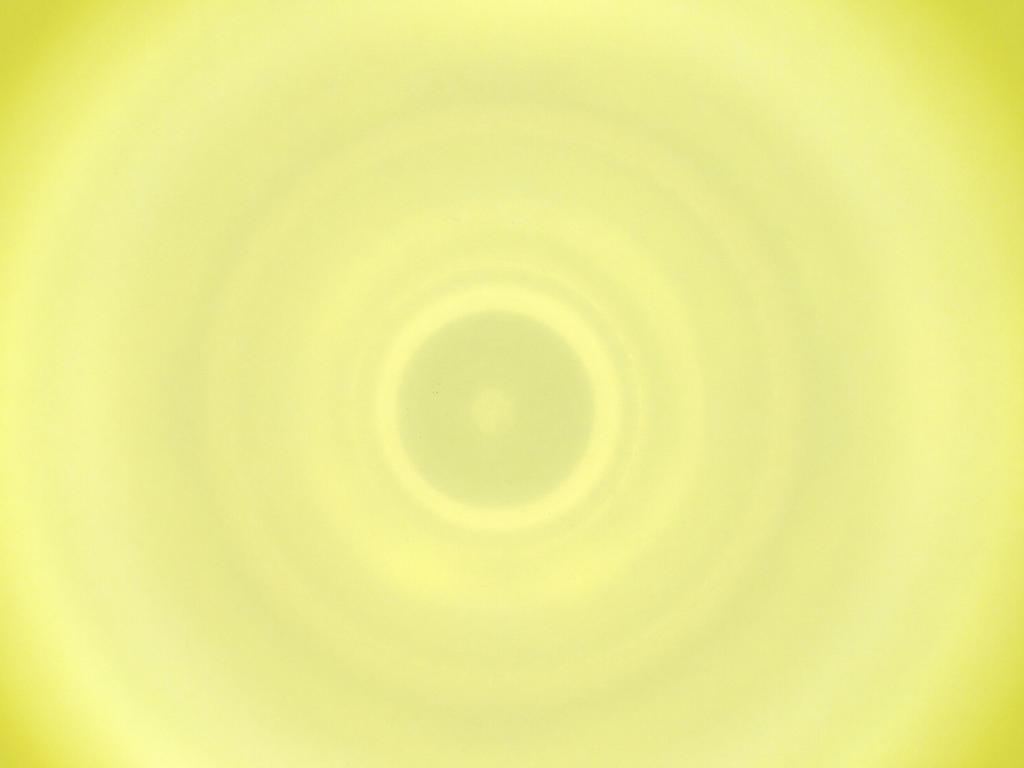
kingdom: Animalia
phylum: Arthropoda
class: Insecta
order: Diptera
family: Cecidomyiidae
